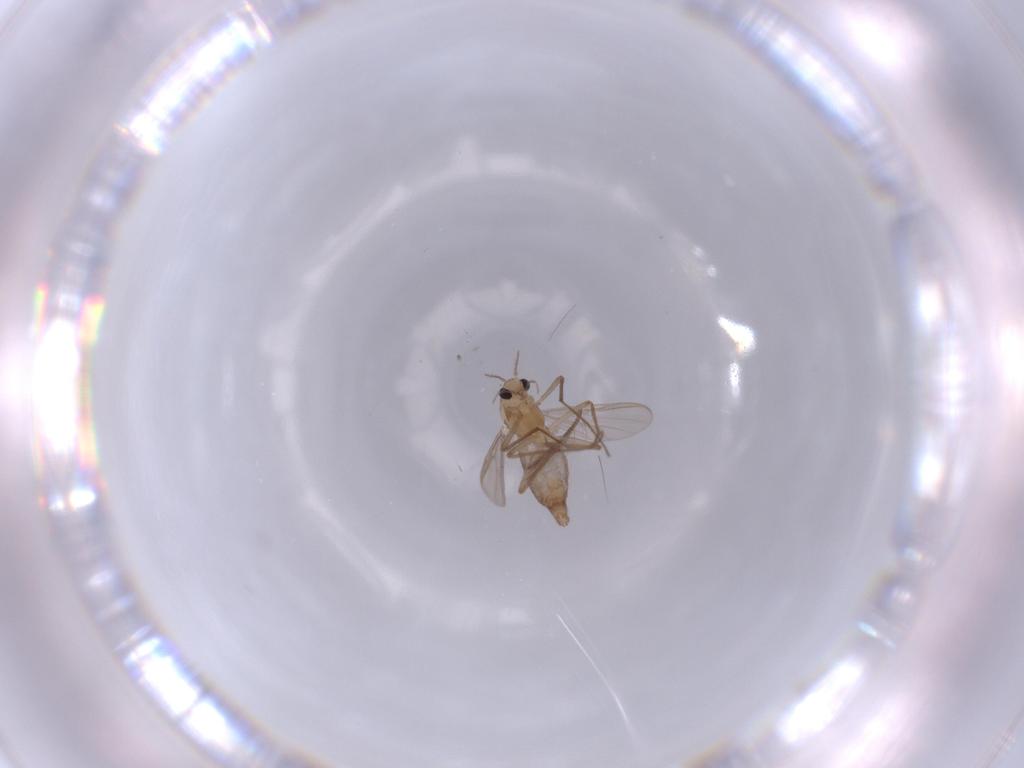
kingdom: Animalia
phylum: Arthropoda
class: Insecta
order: Diptera
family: Chironomidae
